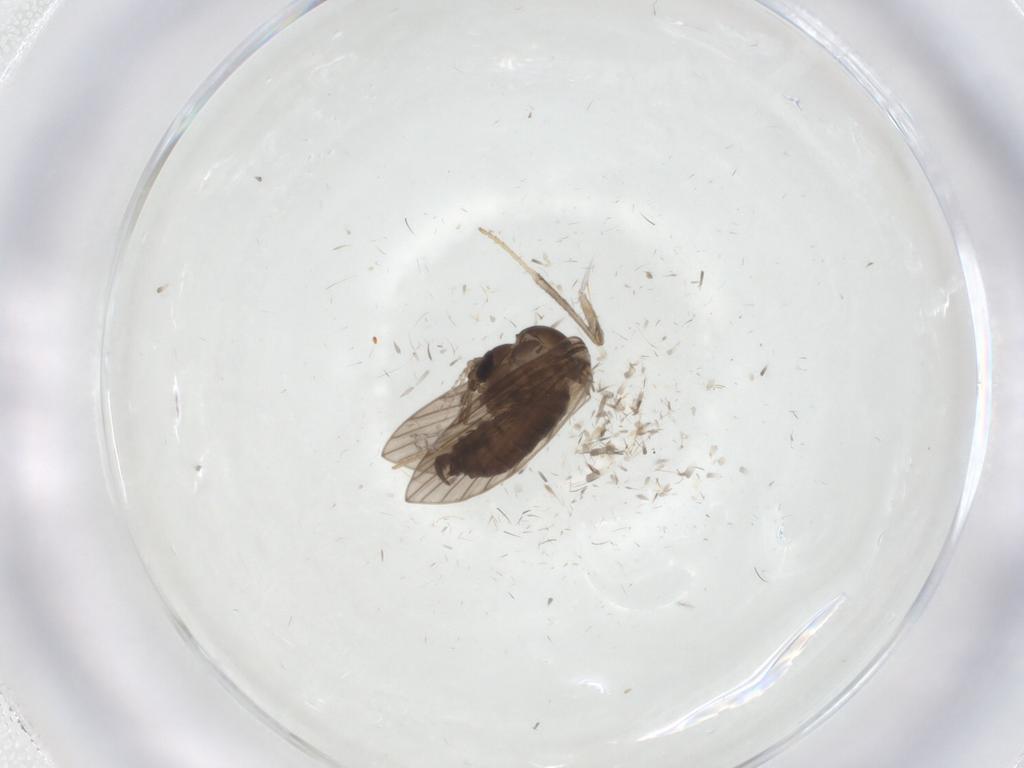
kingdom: Animalia
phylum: Arthropoda
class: Insecta
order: Diptera
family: Psychodidae
